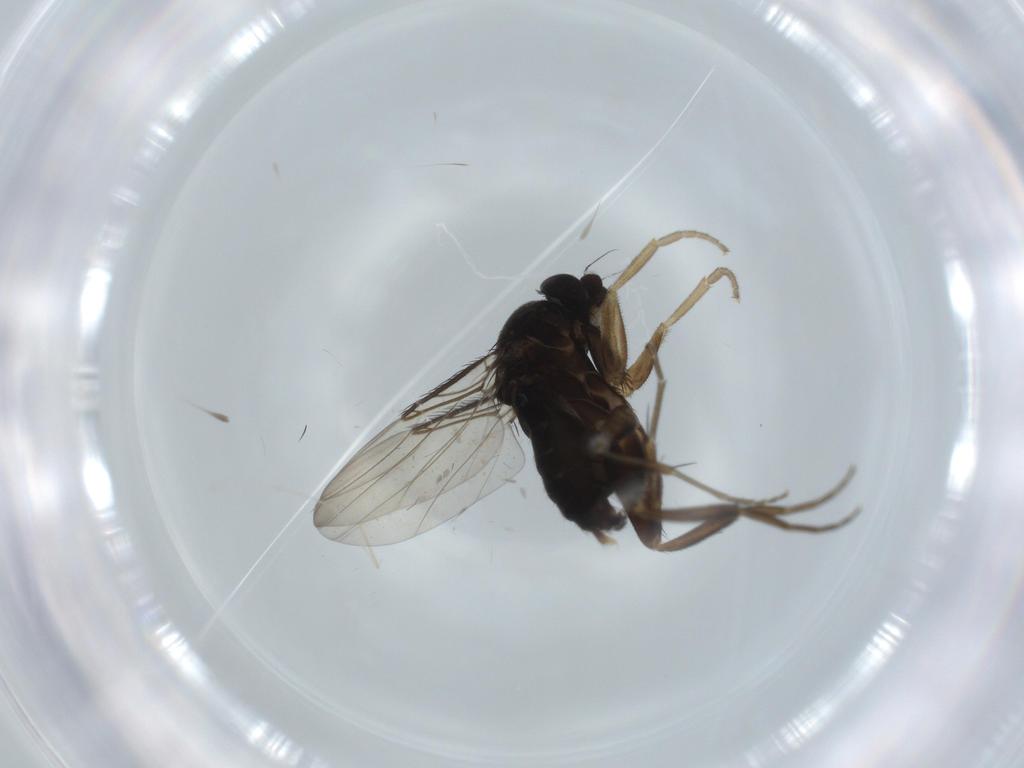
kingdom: Animalia
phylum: Arthropoda
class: Insecta
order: Diptera
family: Phoridae
